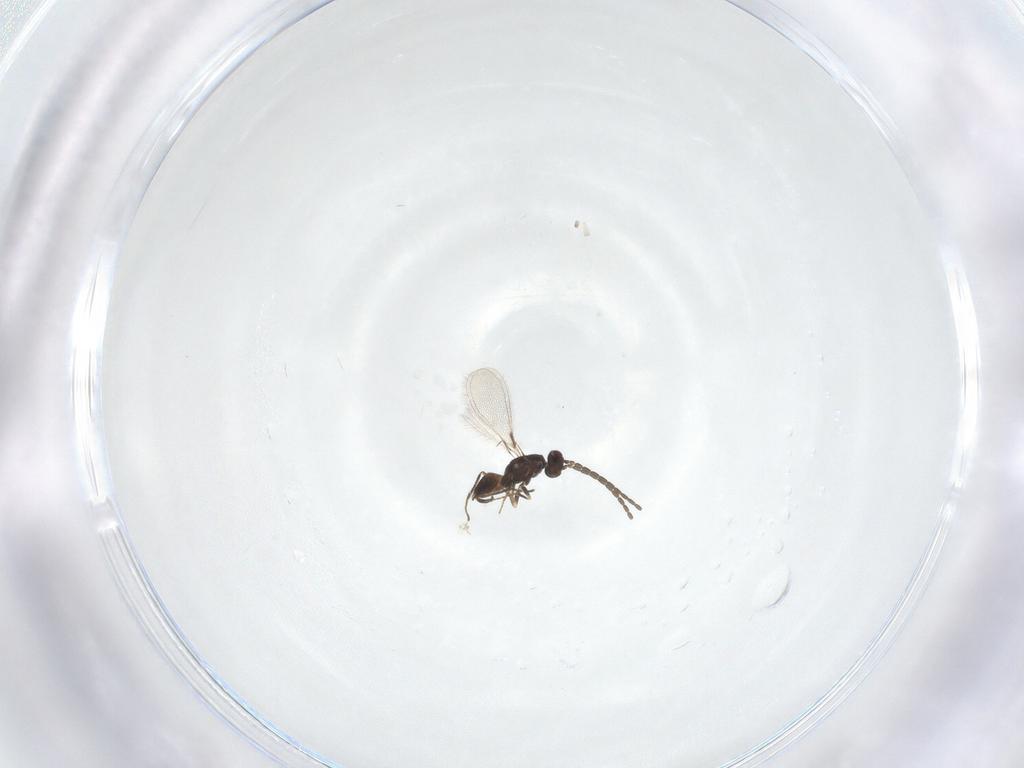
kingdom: Animalia
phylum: Arthropoda
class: Insecta
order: Hymenoptera
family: Mymaridae
